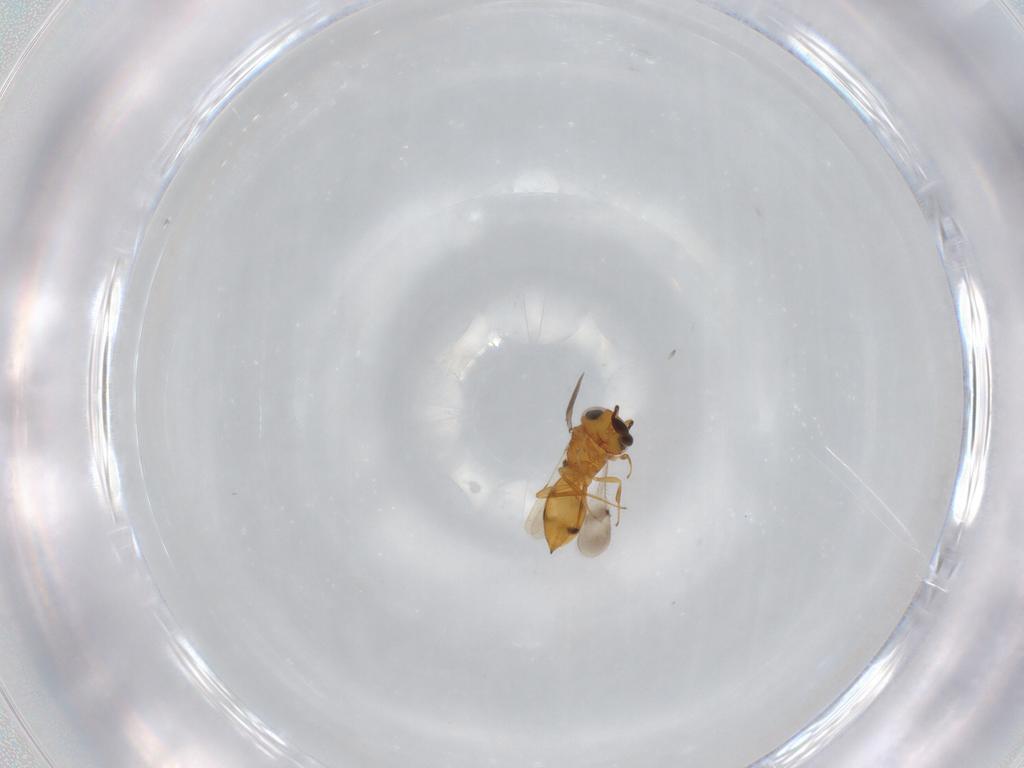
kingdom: Animalia
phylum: Arthropoda
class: Insecta
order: Hymenoptera
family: Scelionidae
